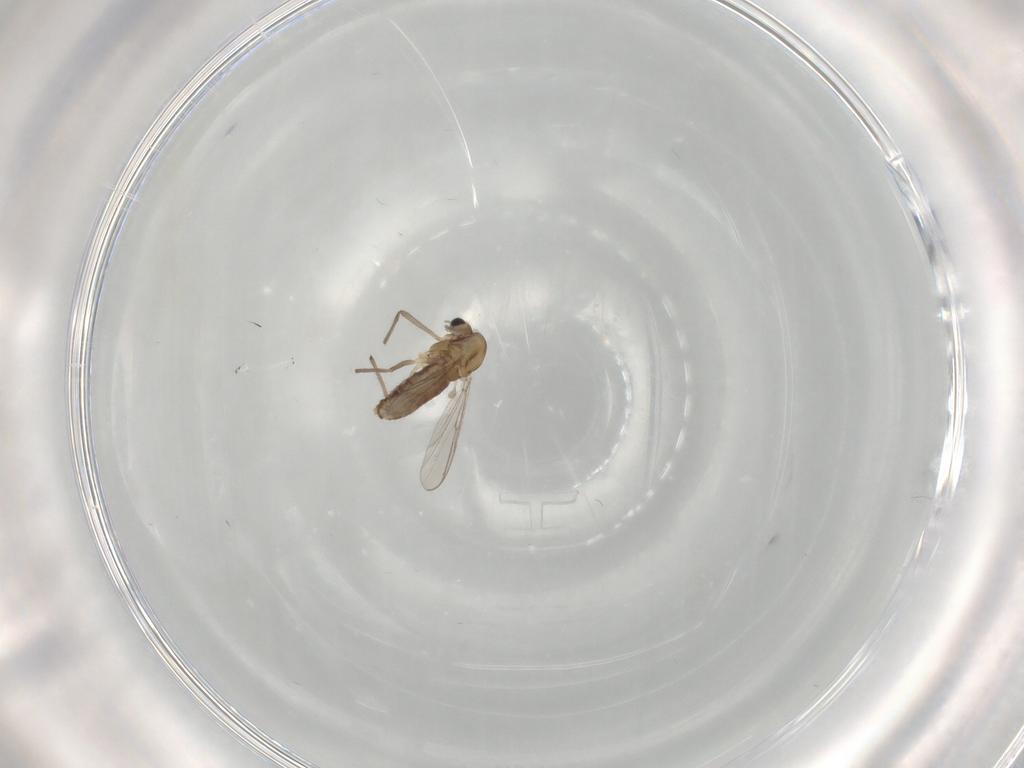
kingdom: Animalia
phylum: Arthropoda
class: Insecta
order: Diptera
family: Chironomidae
